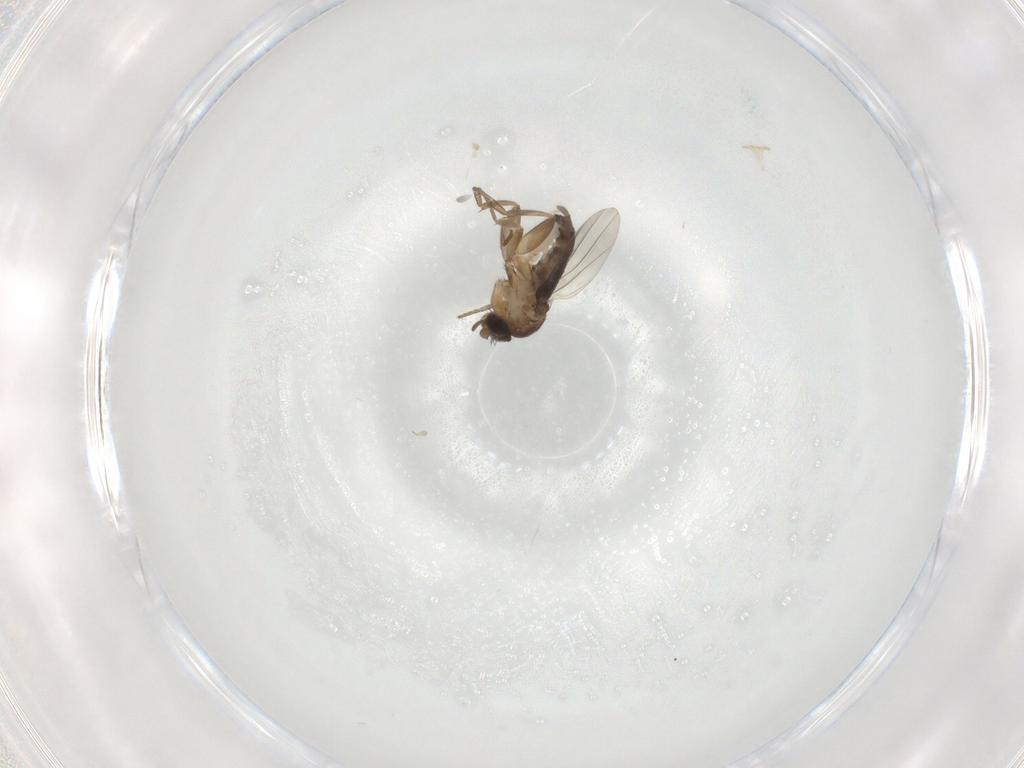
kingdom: Animalia
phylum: Arthropoda
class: Insecta
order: Diptera
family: Phoridae
